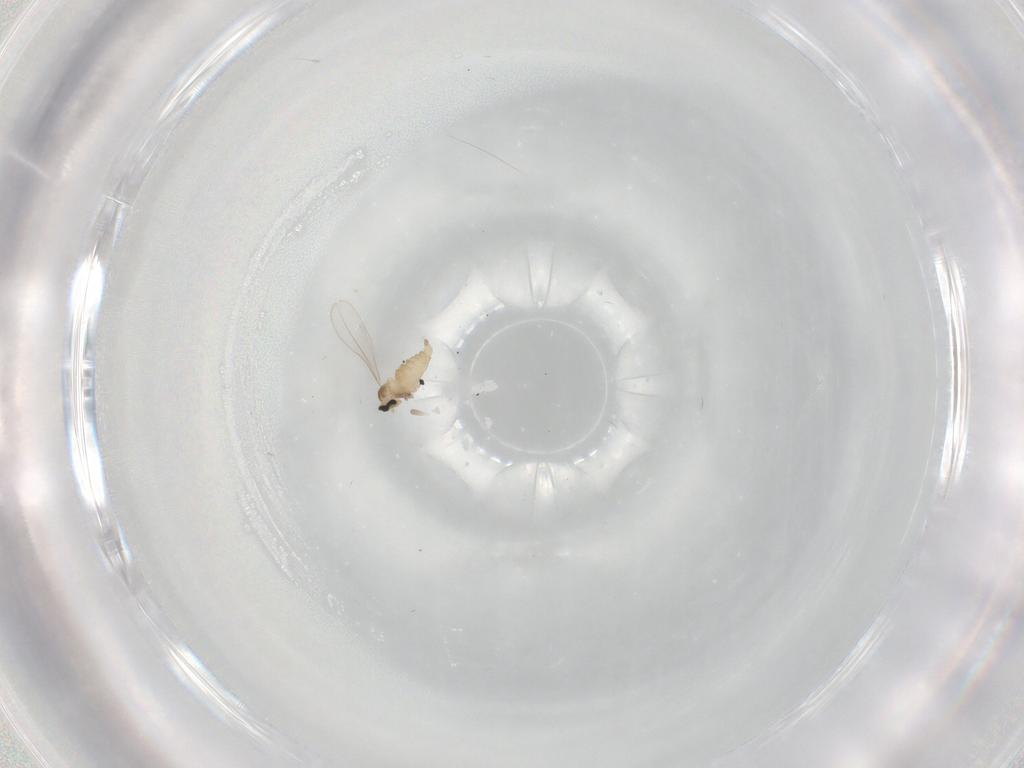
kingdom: Animalia
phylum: Arthropoda
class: Insecta
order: Diptera
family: Cecidomyiidae
